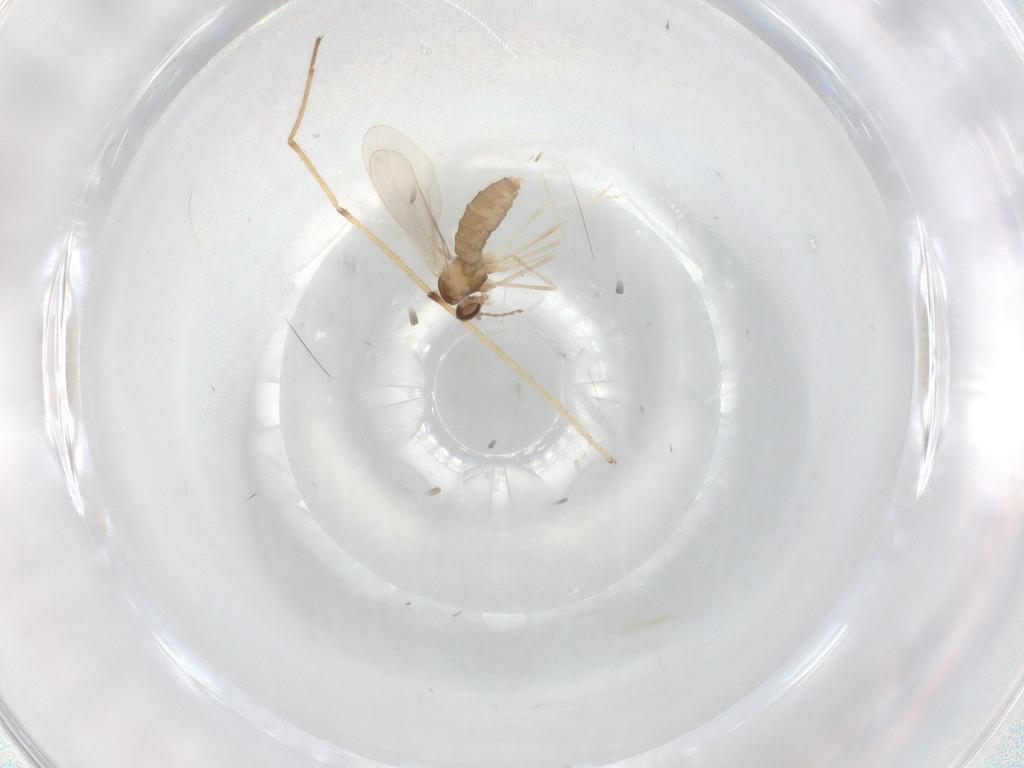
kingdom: Animalia
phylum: Arthropoda
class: Insecta
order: Diptera
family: Cecidomyiidae
